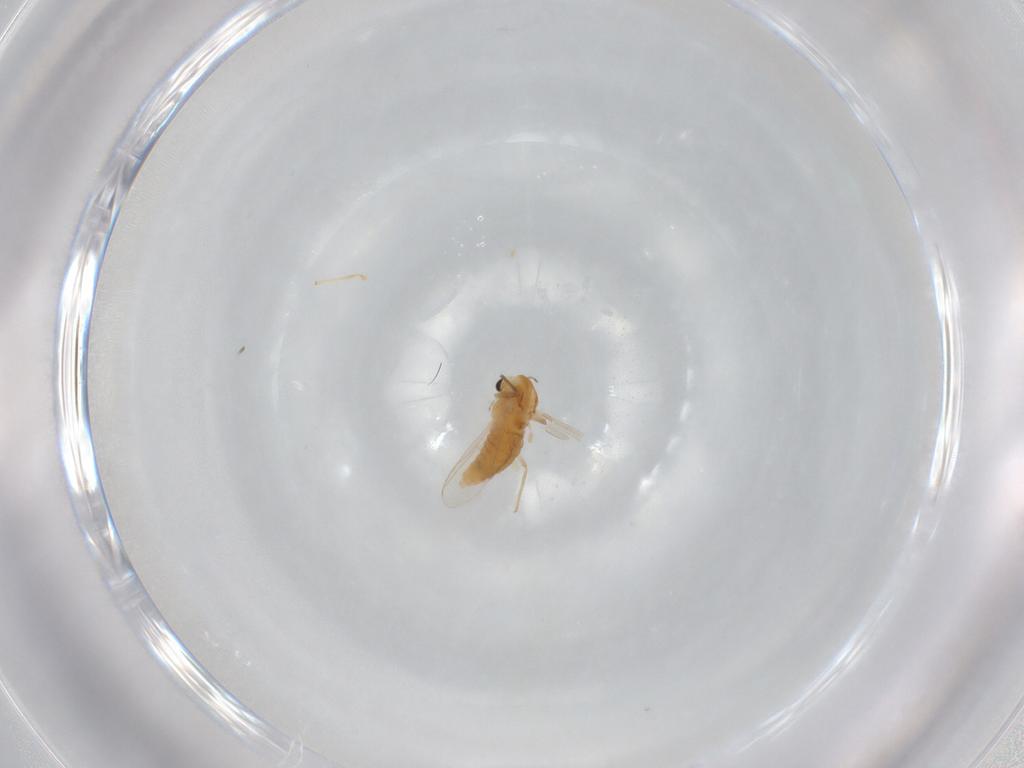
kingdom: Animalia
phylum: Arthropoda
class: Insecta
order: Diptera
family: Chironomidae
